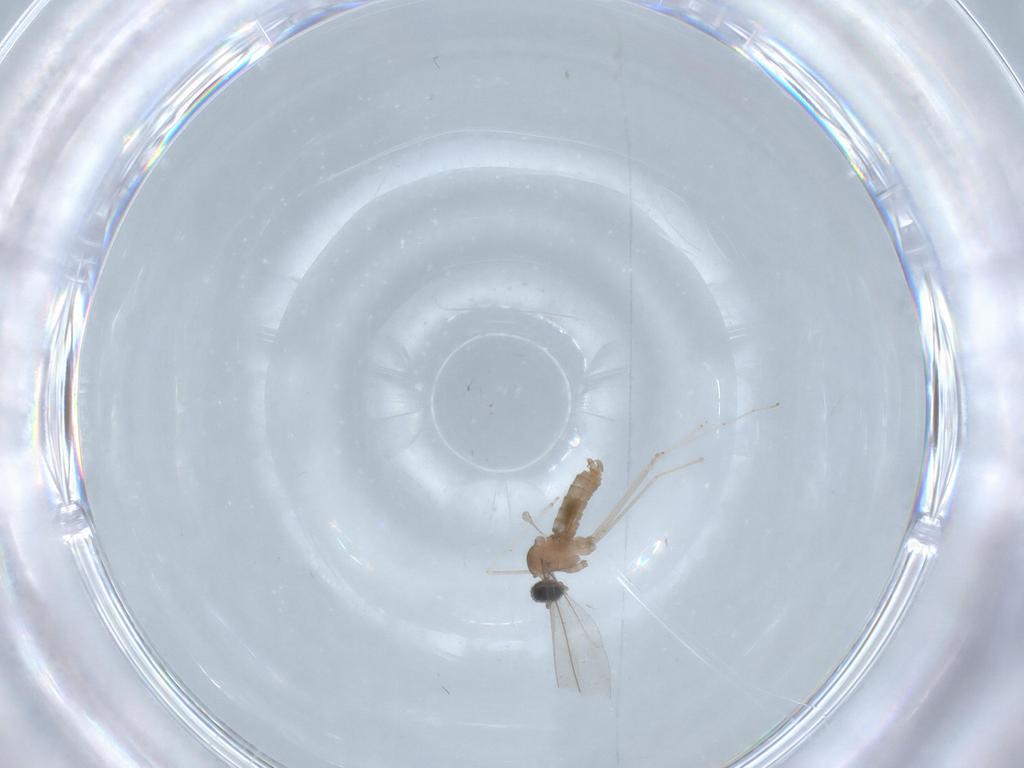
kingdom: Animalia
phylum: Arthropoda
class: Insecta
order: Diptera
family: Cecidomyiidae
